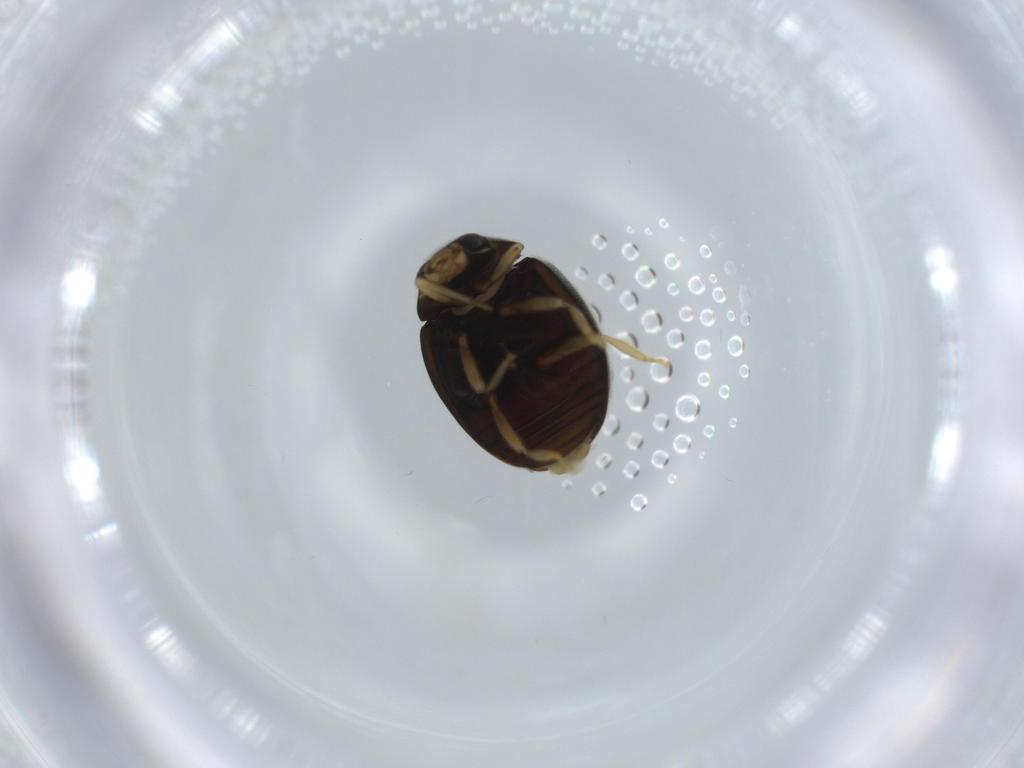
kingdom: Animalia
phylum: Arthropoda
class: Insecta
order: Coleoptera
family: Coccinellidae
